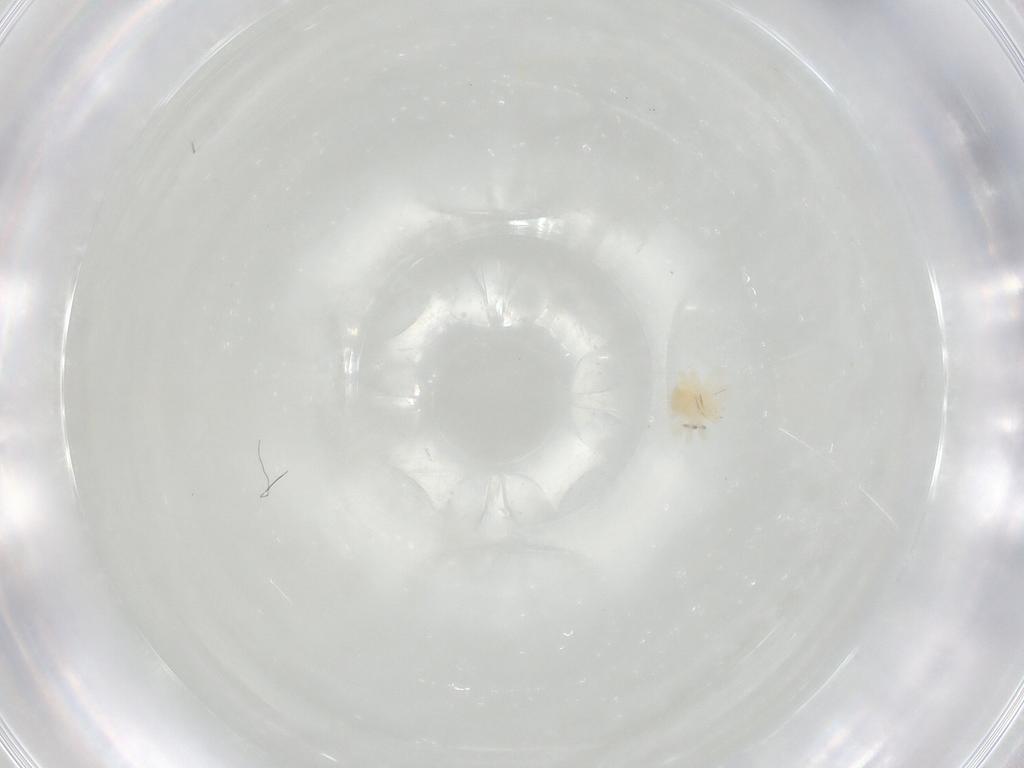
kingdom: Animalia
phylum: Arthropoda
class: Arachnida
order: Trombidiformes
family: Anystidae
